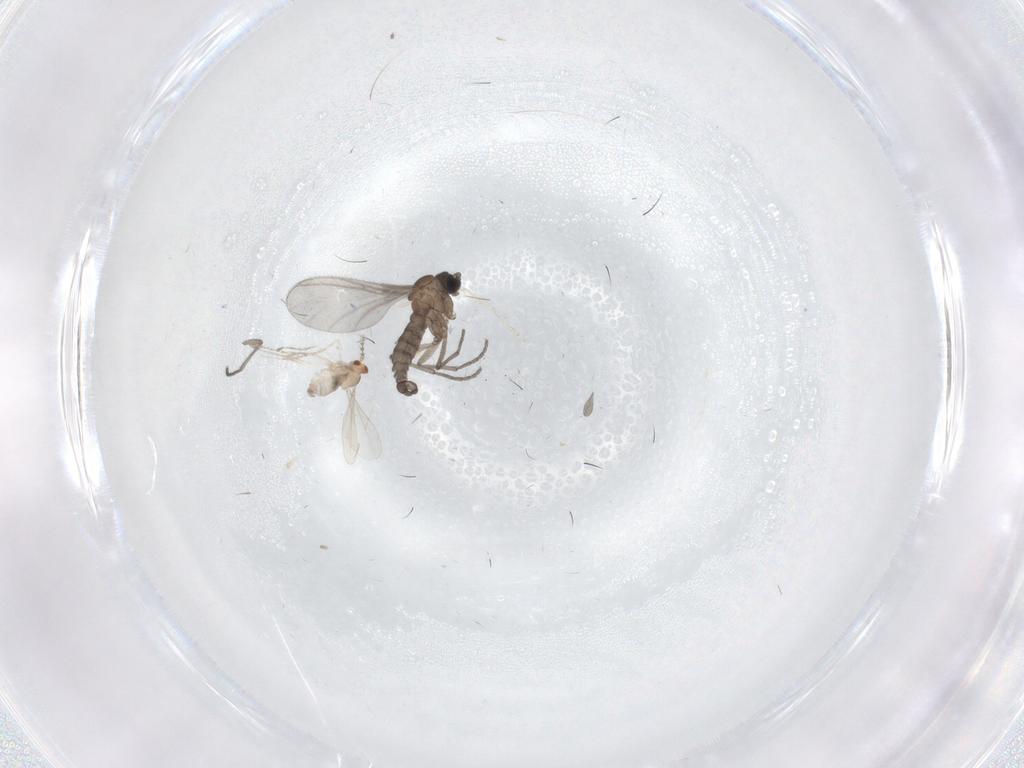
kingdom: Animalia
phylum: Arthropoda
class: Insecta
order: Diptera
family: Sciaridae
